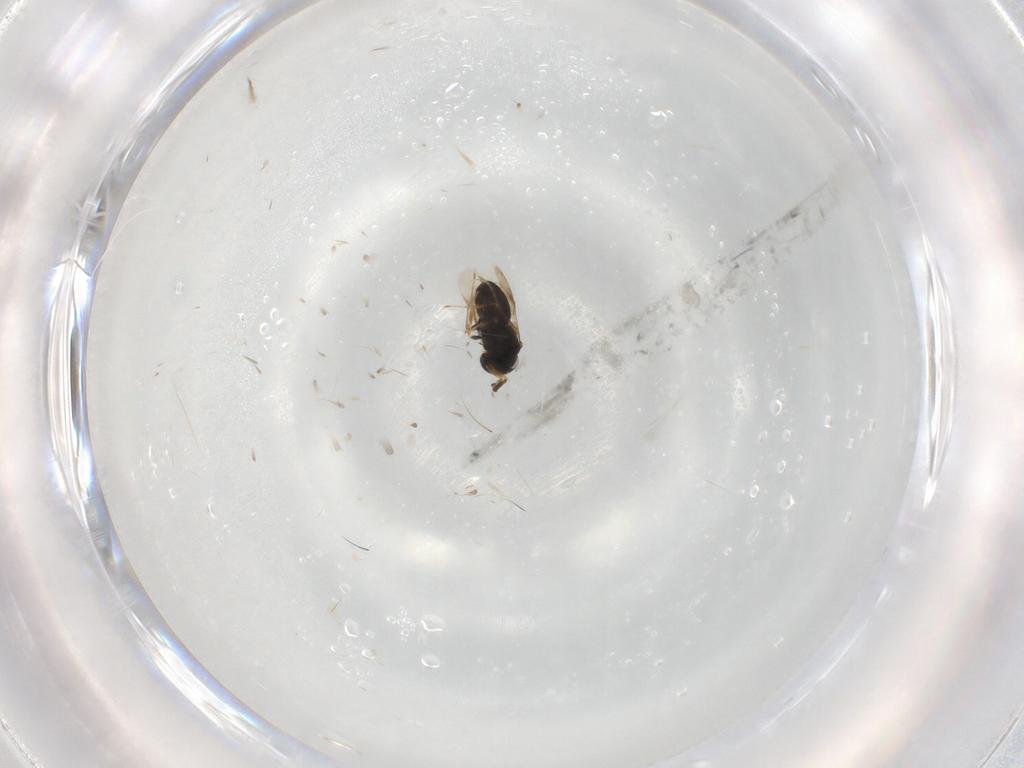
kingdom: Animalia
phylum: Arthropoda
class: Insecta
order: Hymenoptera
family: Scelionidae
